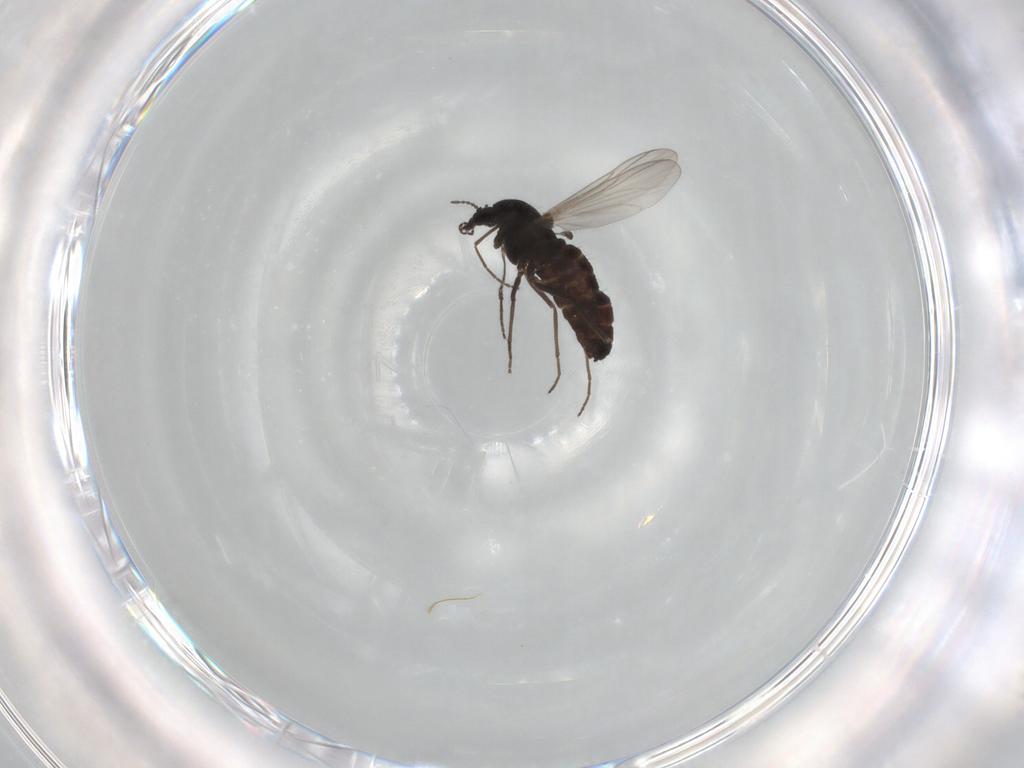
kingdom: Animalia
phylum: Arthropoda
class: Insecta
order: Diptera
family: Chironomidae
